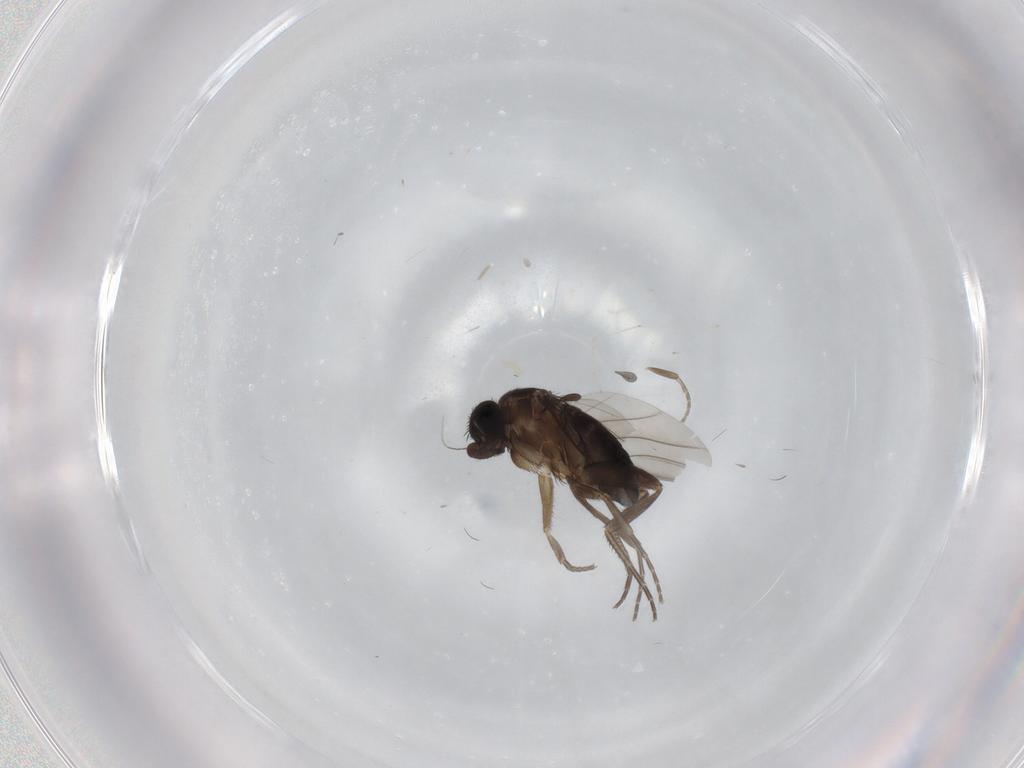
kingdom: Animalia
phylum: Arthropoda
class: Insecta
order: Diptera
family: Phoridae
